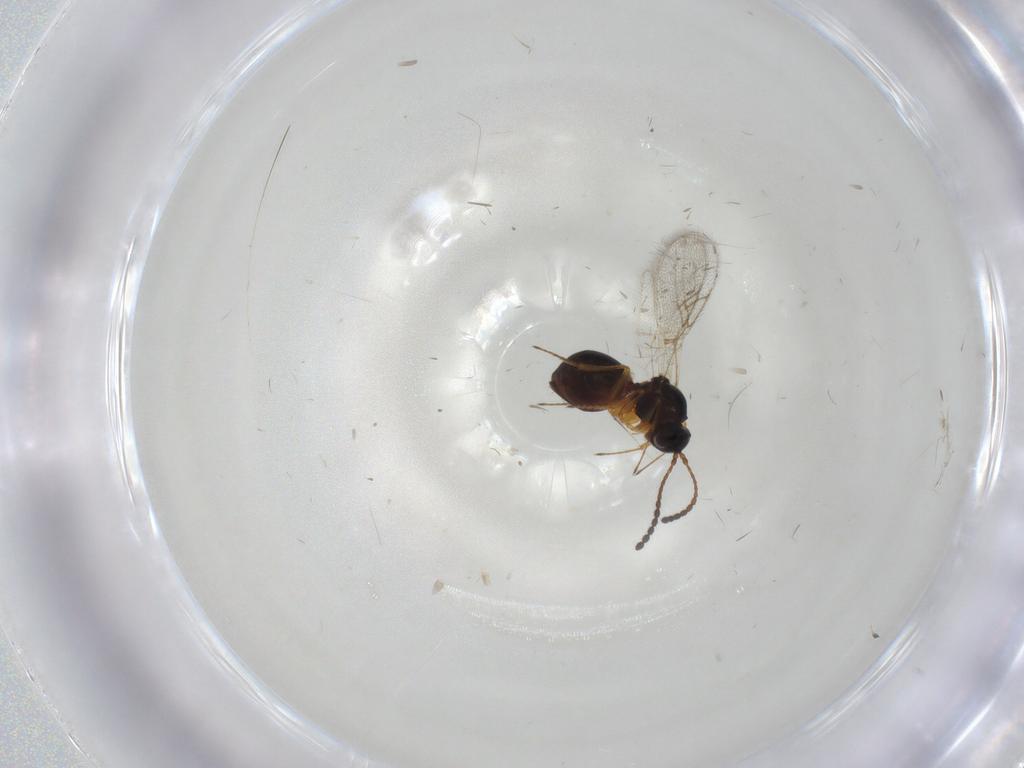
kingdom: Animalia
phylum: Arthropoda
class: Insecta
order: Hymenoptera
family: Figitidae
